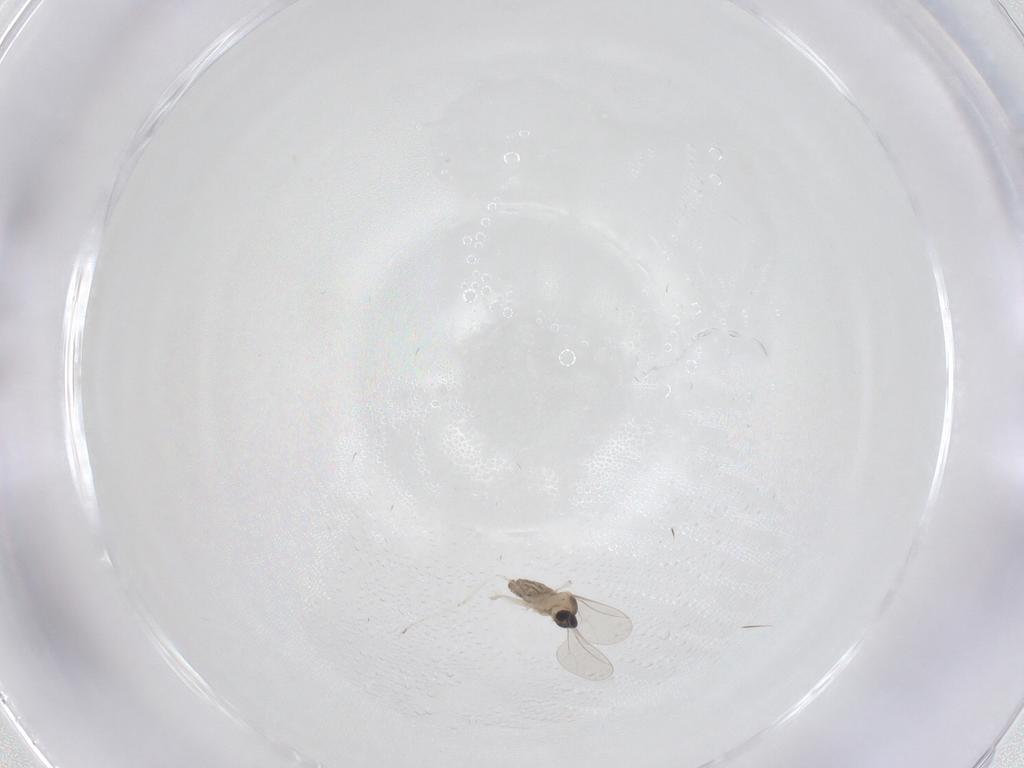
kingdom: Animalia
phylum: Arthropoda
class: Insecta
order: Diptera
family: Cecidomyiidae
